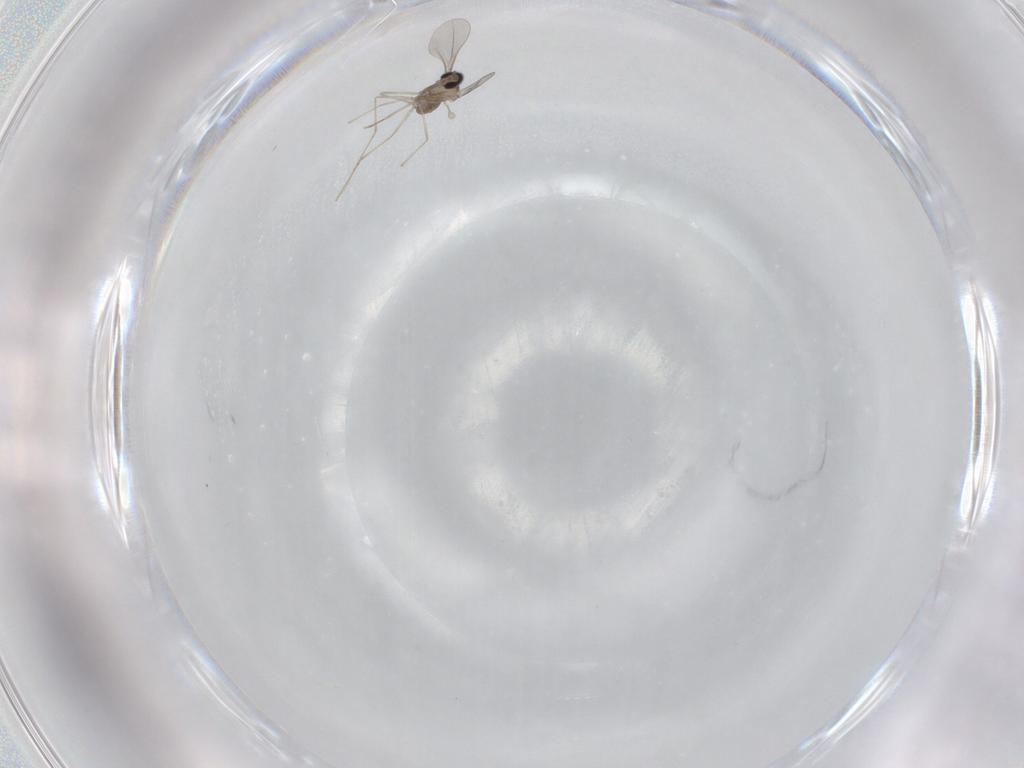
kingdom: Animalia
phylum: Arthropoda
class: Insecta
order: Diptera
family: Cecidomyiidae
